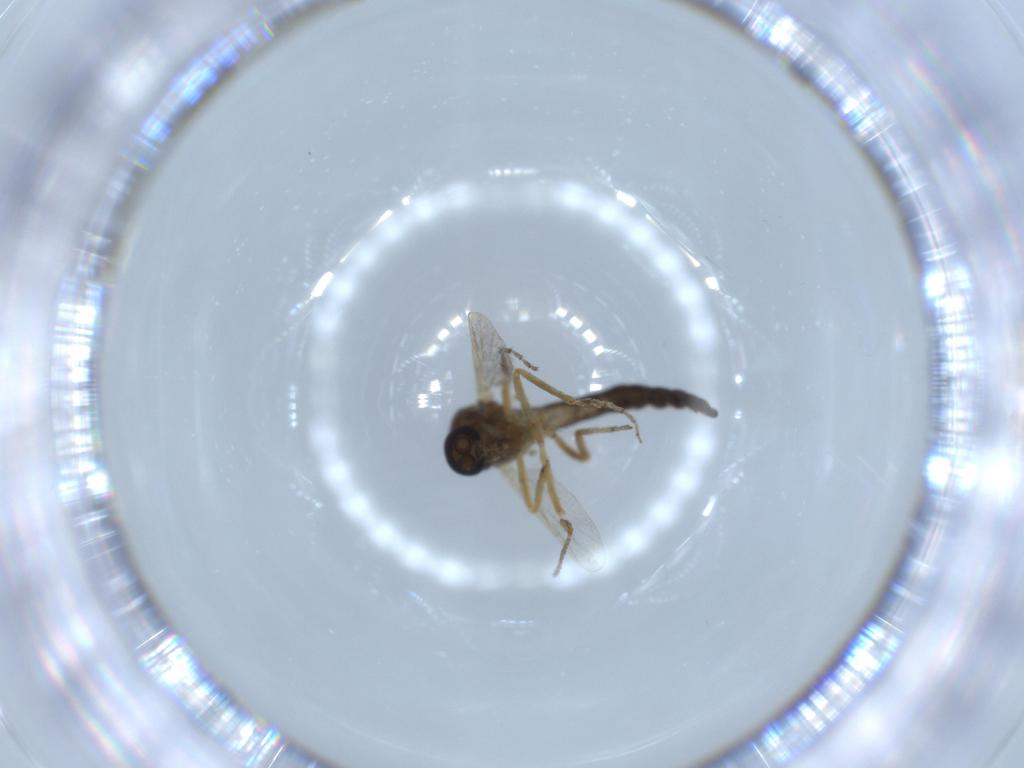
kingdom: Animalia
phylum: Arthropoda
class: Insecta
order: Diptera
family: Ceratopogonidae
